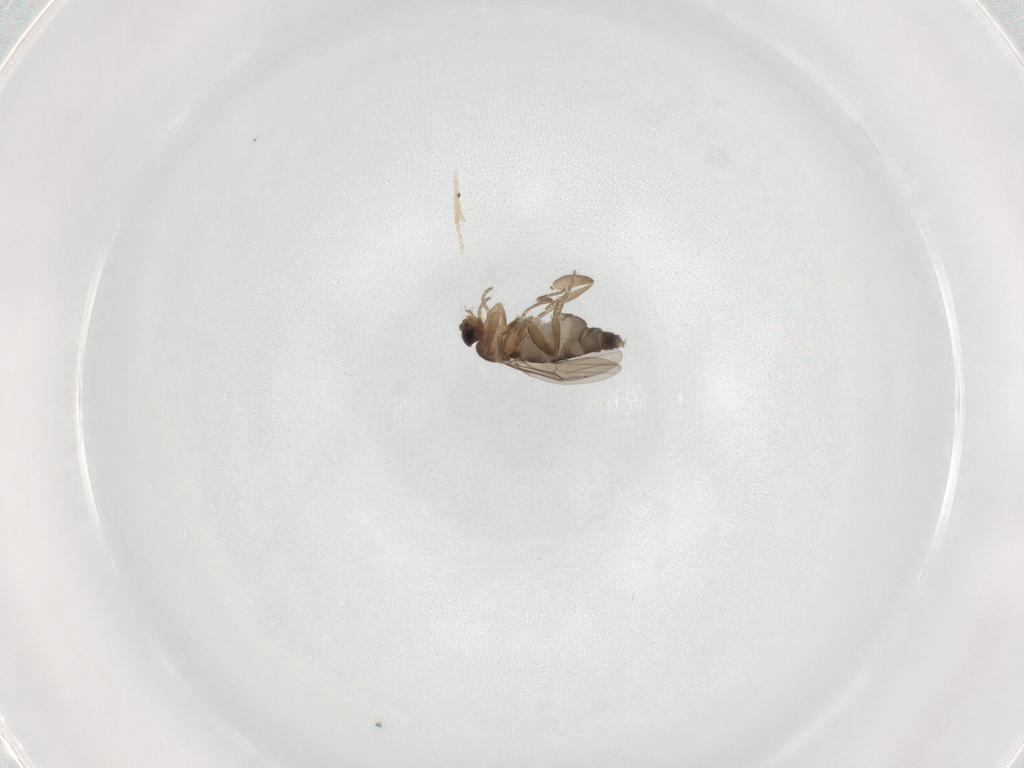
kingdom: Animalia
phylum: Arthropoda
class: Insecta
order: Diptera
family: Phoridae
